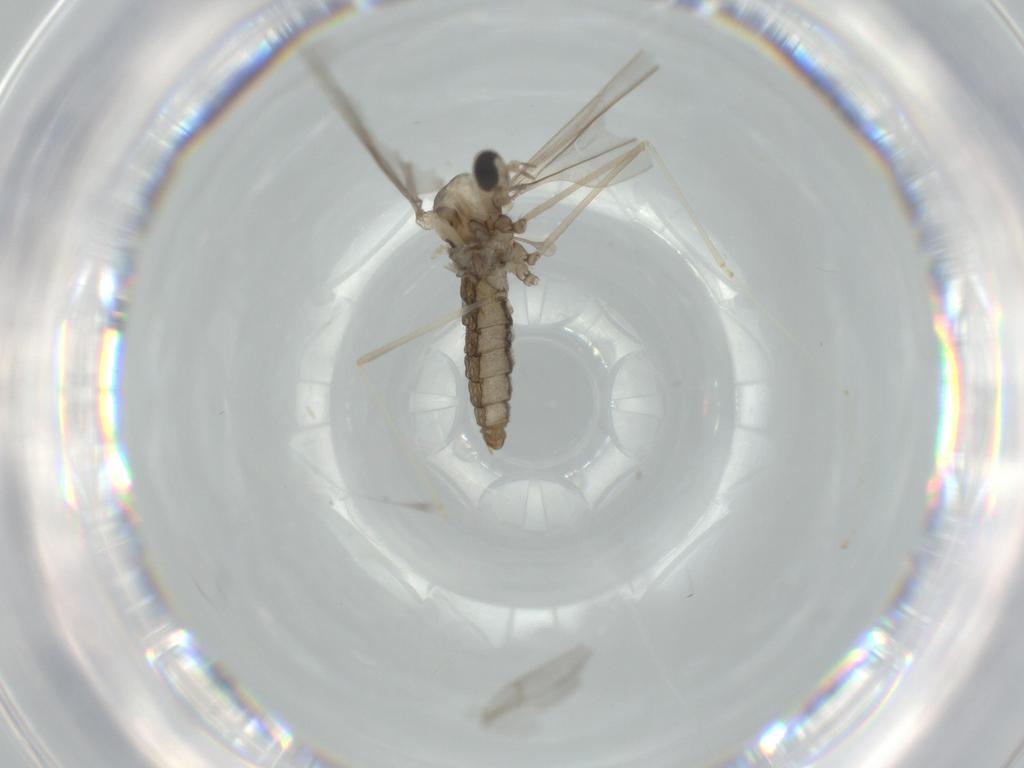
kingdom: Animalia
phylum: Arthropoda
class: Insecta
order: Diptera
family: Cecidomyiidae
